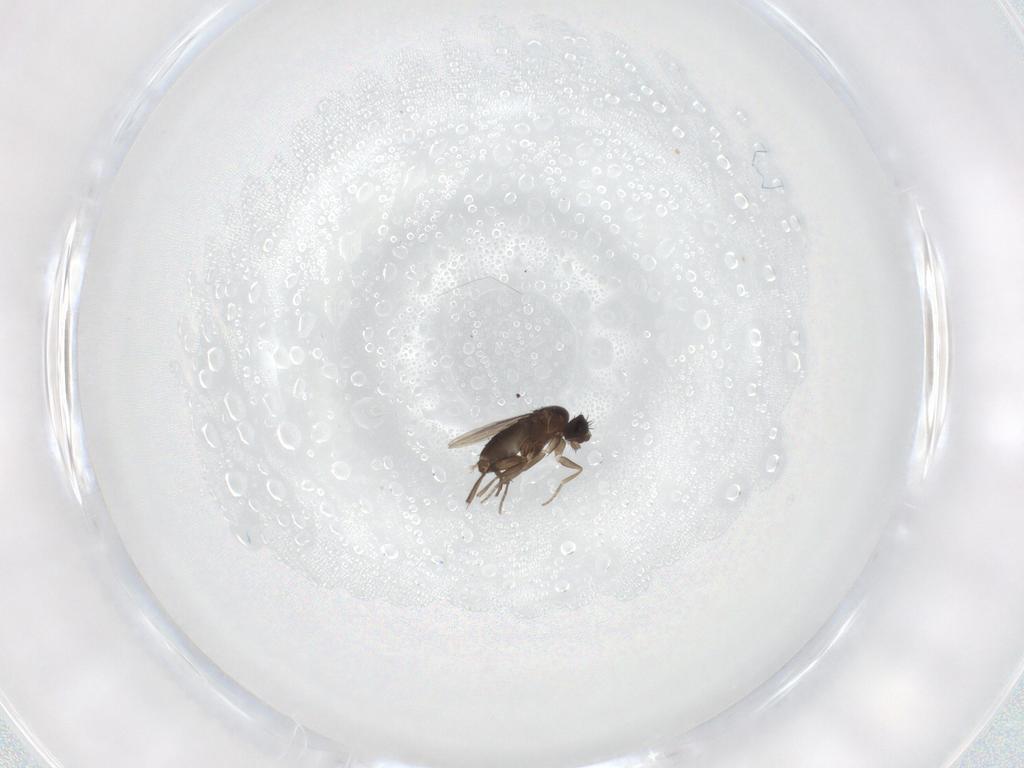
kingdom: Animalia
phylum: Arthropoda
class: Insecta
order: Diptera
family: Phoridae
